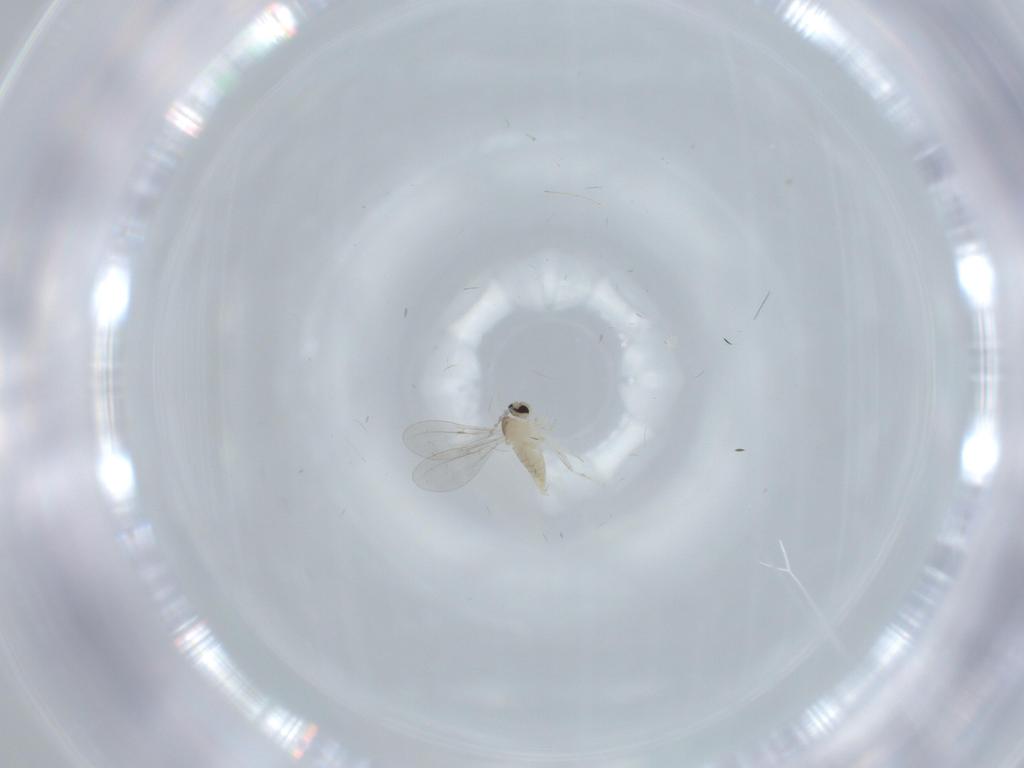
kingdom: Animalia
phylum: Arthropoda
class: Insecta
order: Diptera
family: Cecidomyiidae
